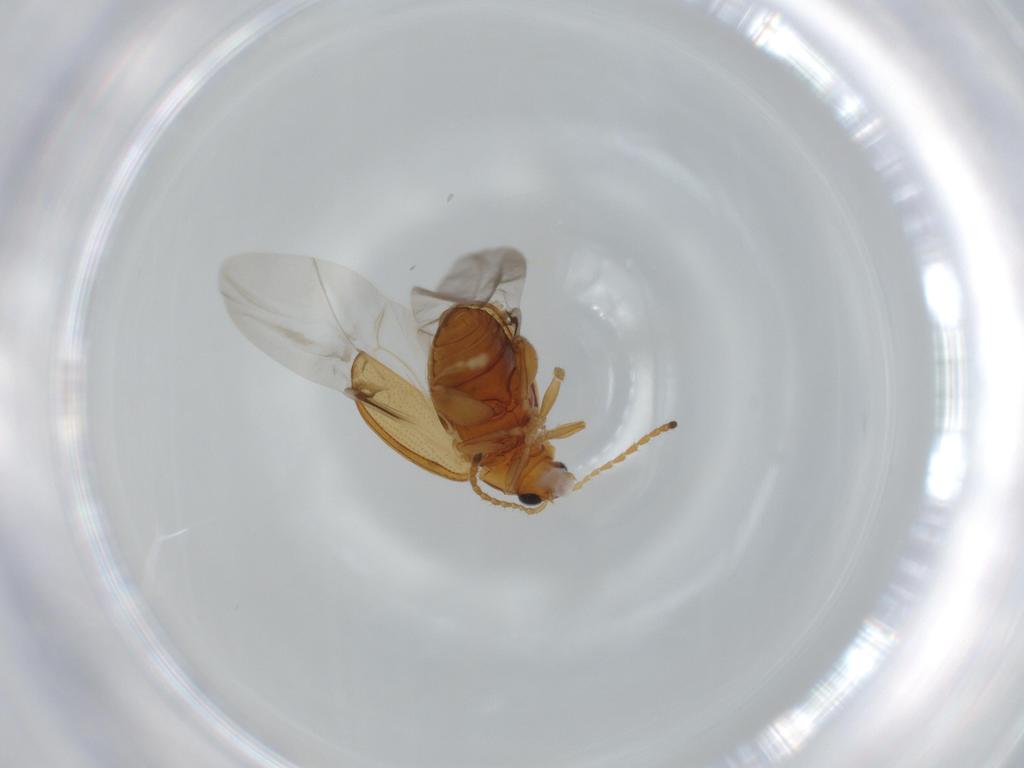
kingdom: Animalia
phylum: Arthropoda
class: Insecta
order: Coleoptera
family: Chrysomelidae
